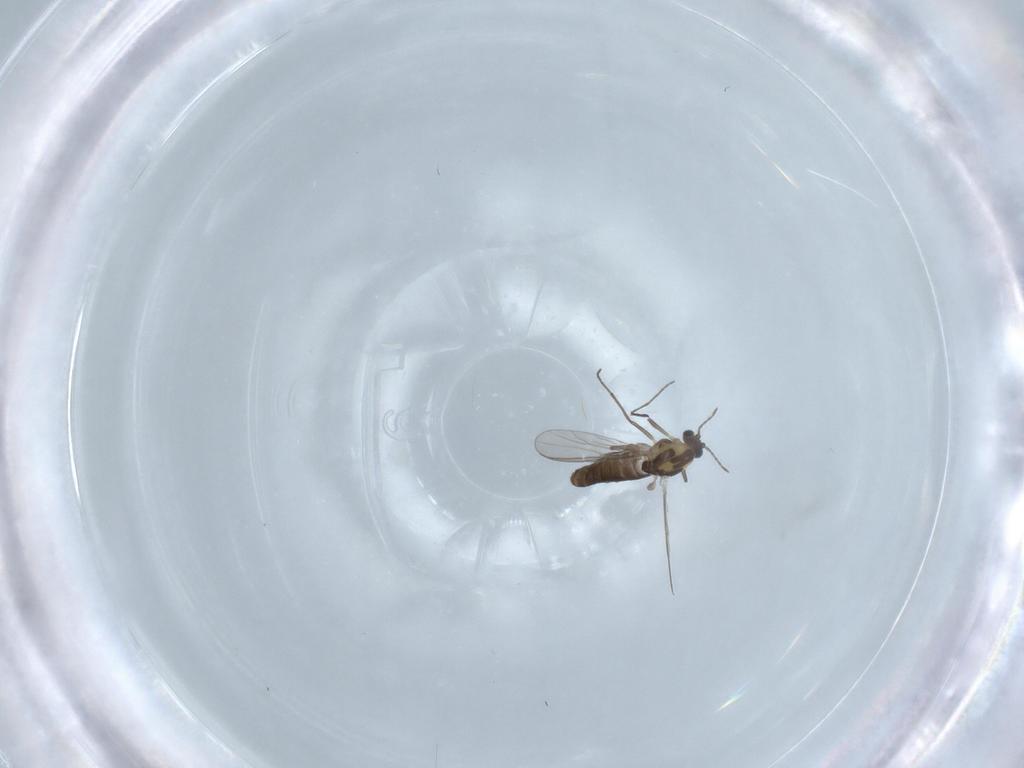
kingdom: Animalia
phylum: Arthropoda
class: Insecta
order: Diptera
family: Chironomidae
